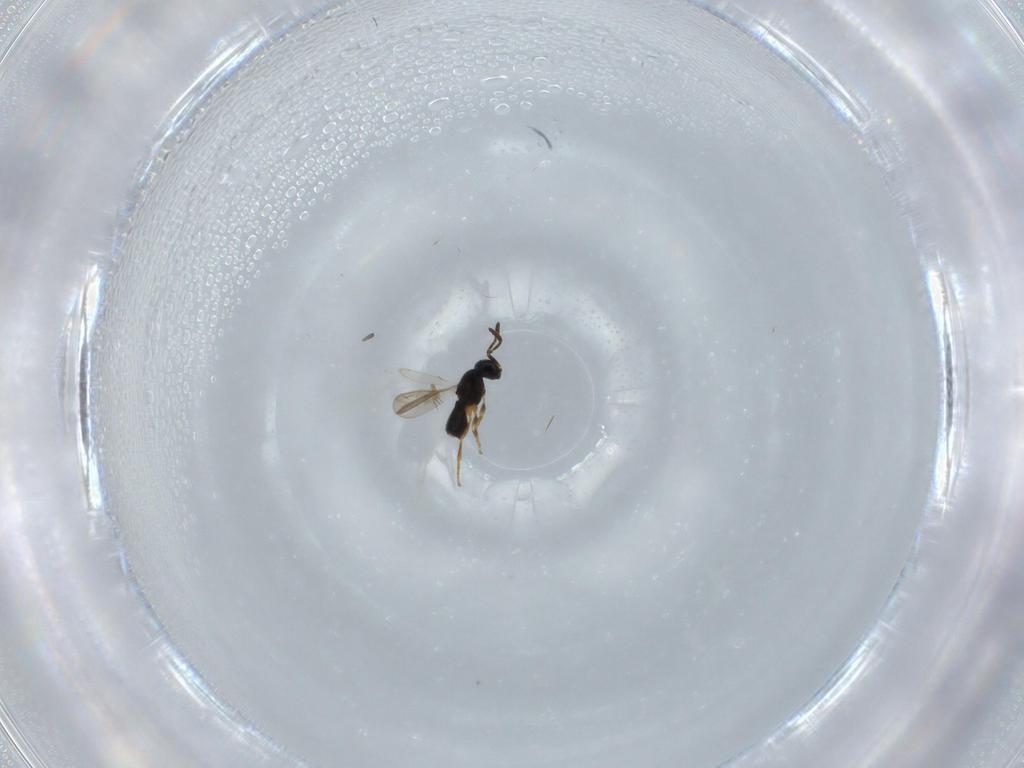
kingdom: Animalia
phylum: Arthropoda
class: Insecta
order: Hymenoptera
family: Scelionidae
